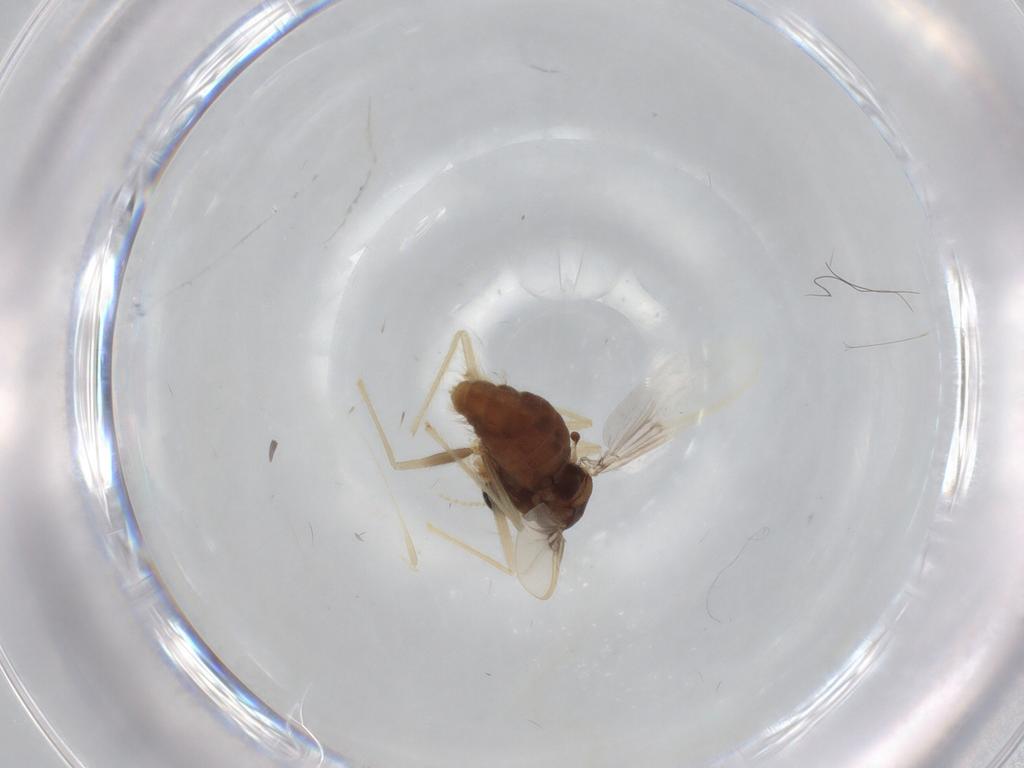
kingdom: Animalia
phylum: Arthropoda
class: Insecta
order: Diptera
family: Chironomidae
